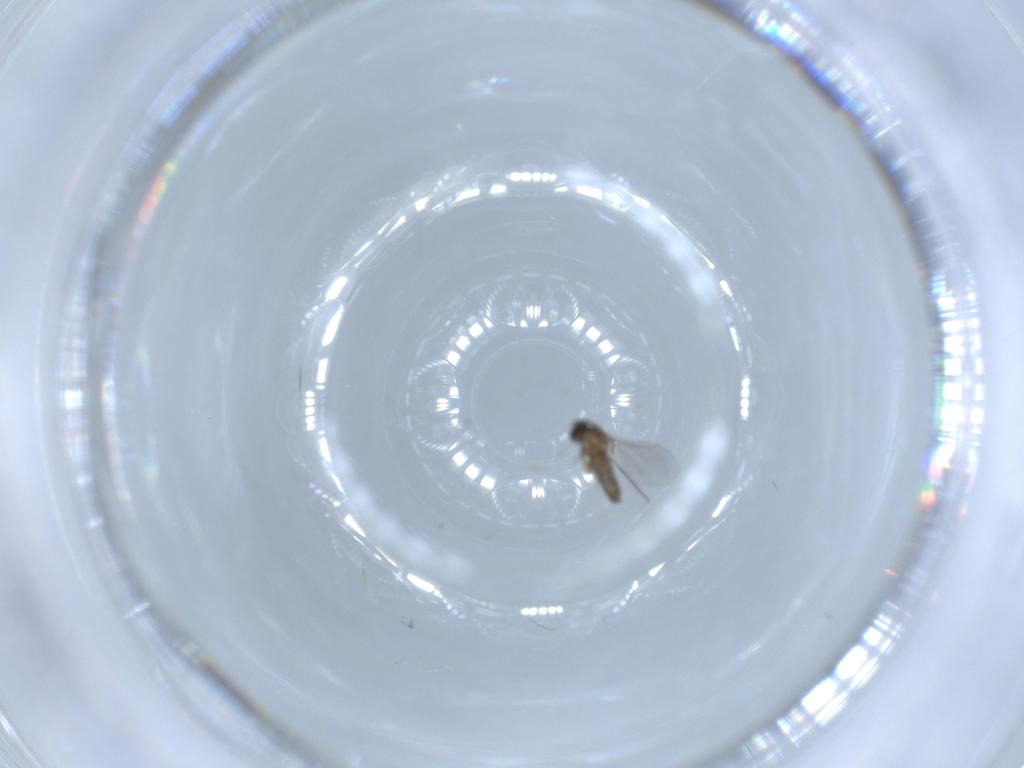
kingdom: Animalia
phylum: Arthropoda
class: Insecta
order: Diptera
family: Cecidomyiidae
